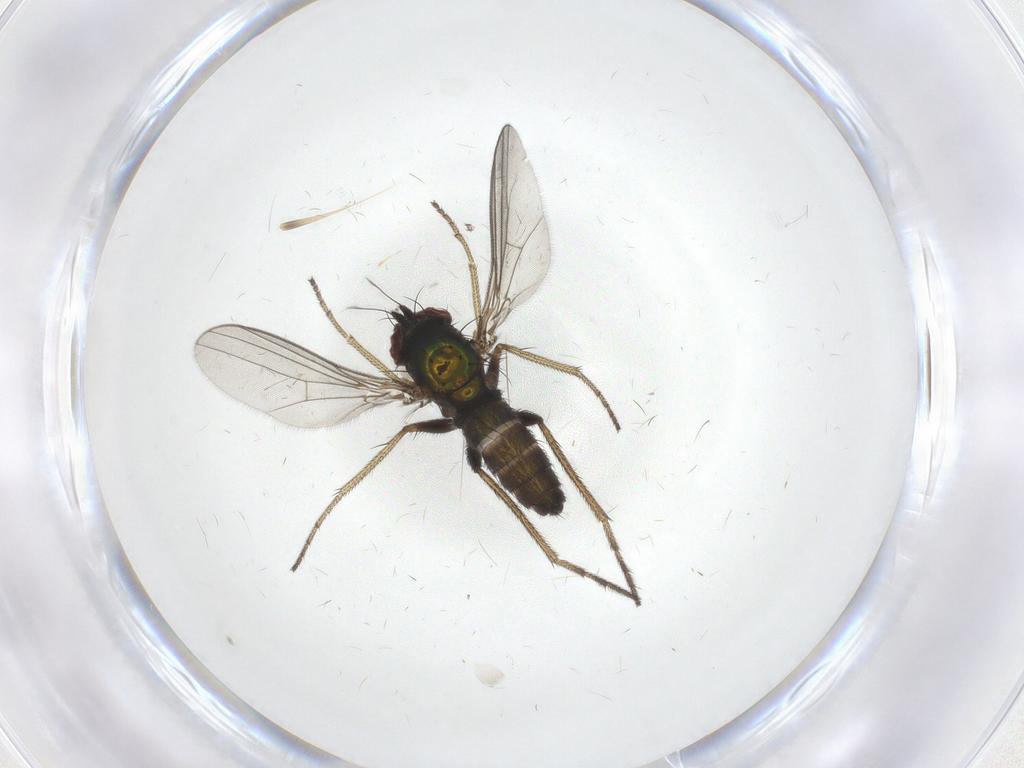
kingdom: Animalia
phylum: Arthropoda
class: Insecta
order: Diptera
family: Dolichopodidae
